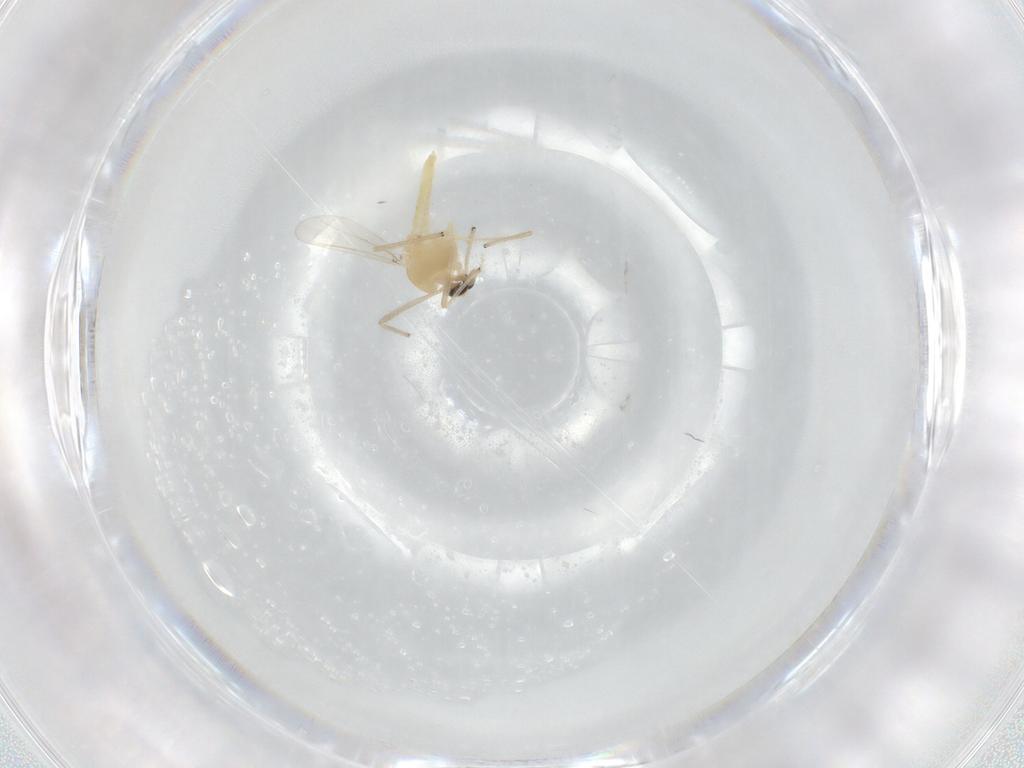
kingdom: Animalia
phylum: Arthropoda
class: Insecta
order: Diptera
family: Chironomidae
